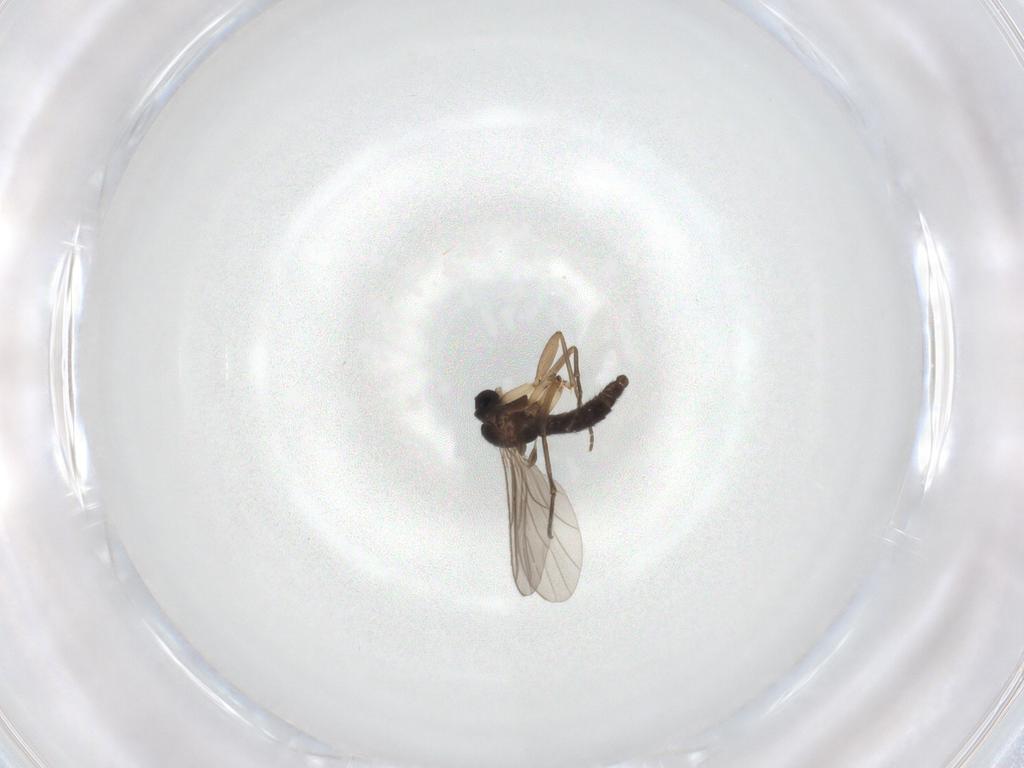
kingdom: Animalia
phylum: Arthropoda
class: Insecta
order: Diptera
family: Sciaridae
